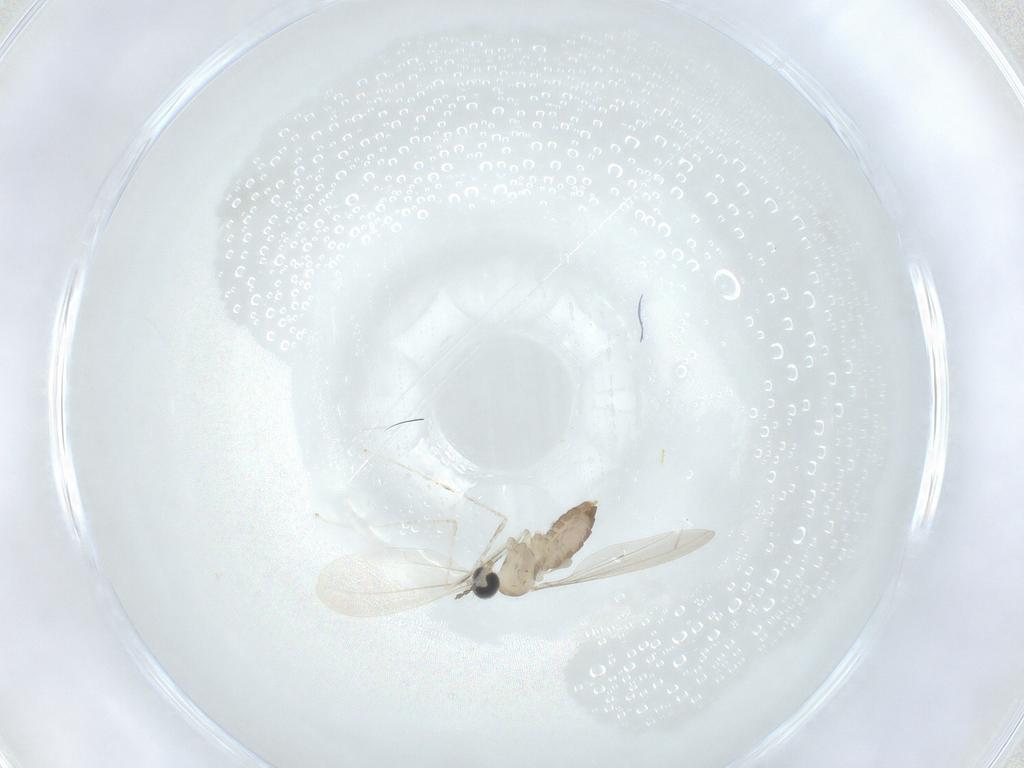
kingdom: Animalia
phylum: Arthropoda
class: Insecta
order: Diptera
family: Cecidomyiidae
